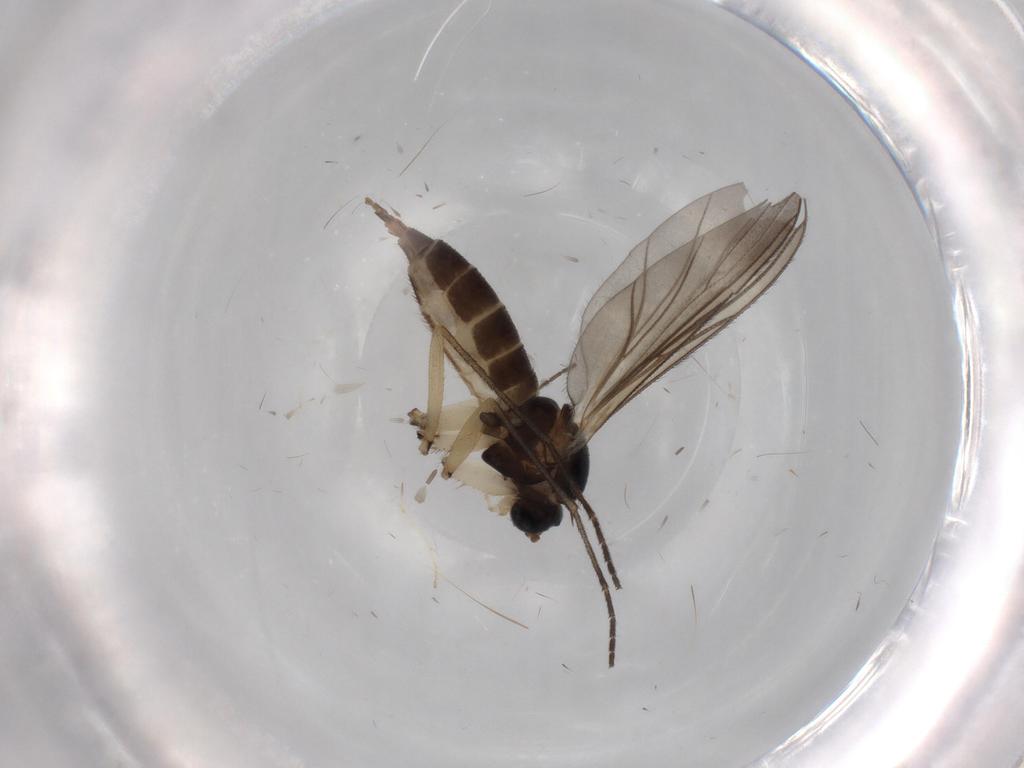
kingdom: Animalia
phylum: Arthropoda
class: Insecta
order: Diptera
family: Sciaridae
